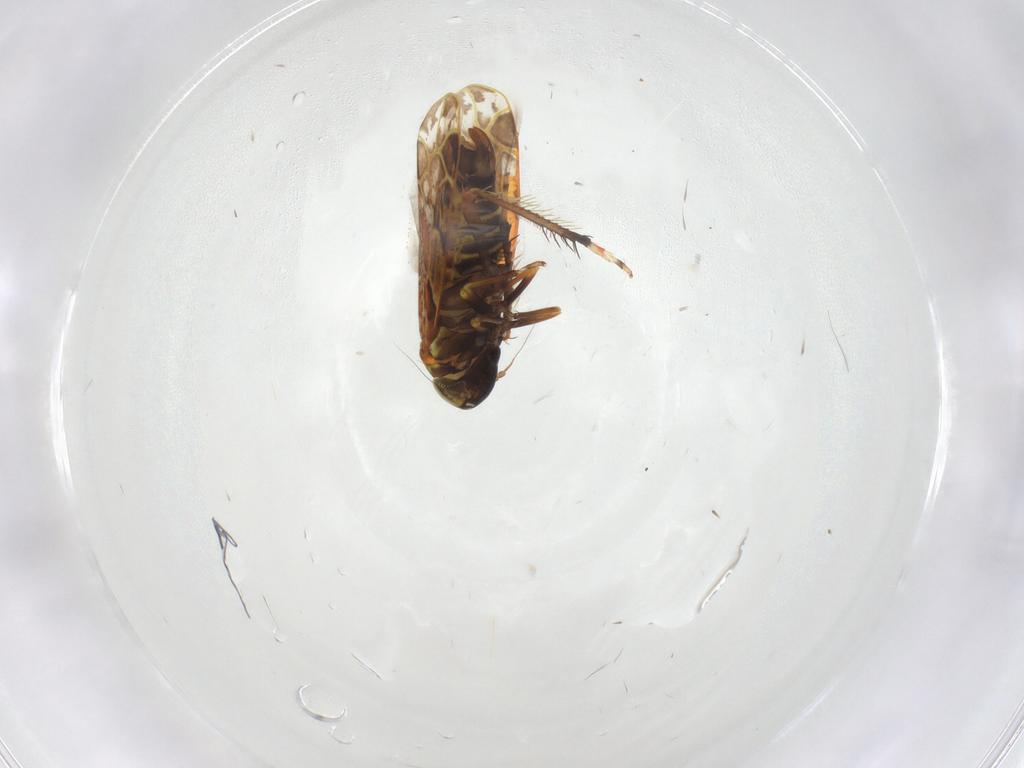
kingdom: Animalia
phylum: Arthropoda
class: Insecta
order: Hemiptera
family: Cicadellidae
